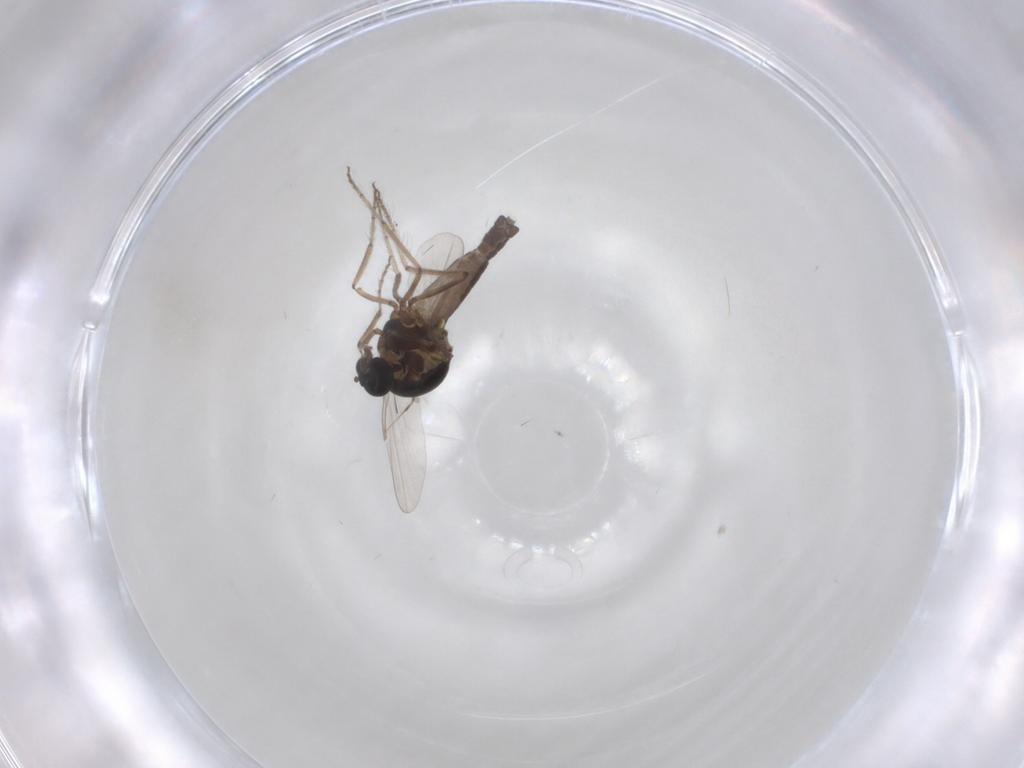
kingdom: Animalia
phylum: Arthropoda
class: Insecta
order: Diptera
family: Ceratopogonidae
